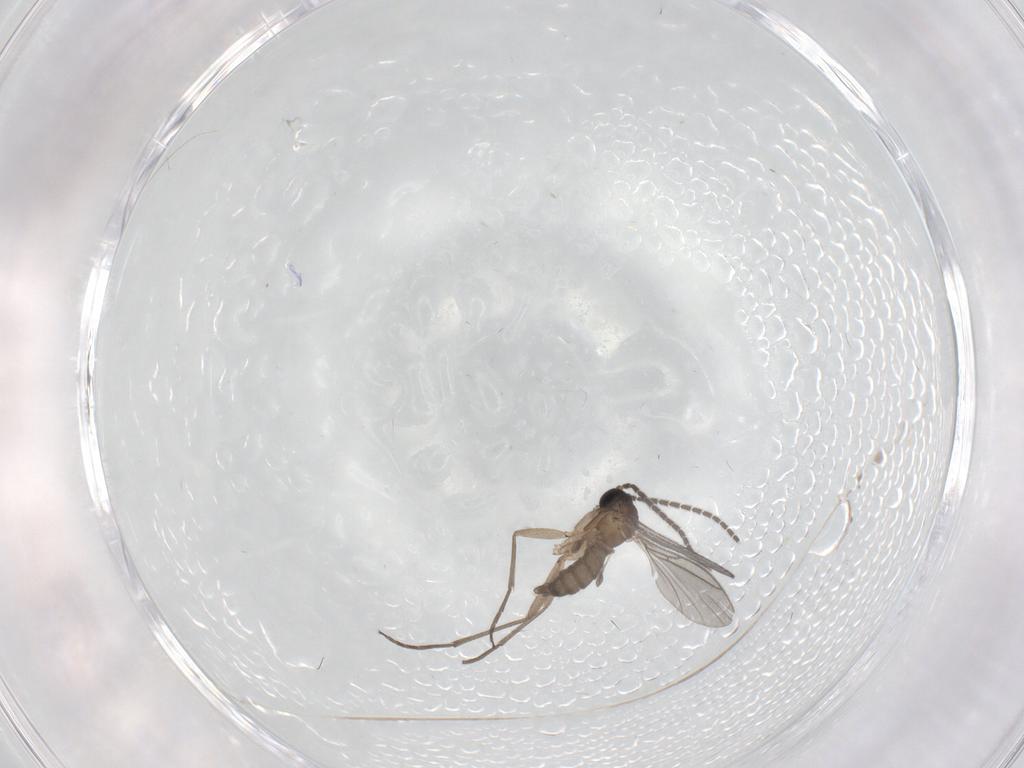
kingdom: Animalia
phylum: Arthropoda
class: Insecta
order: Diptera
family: Sciaridae
